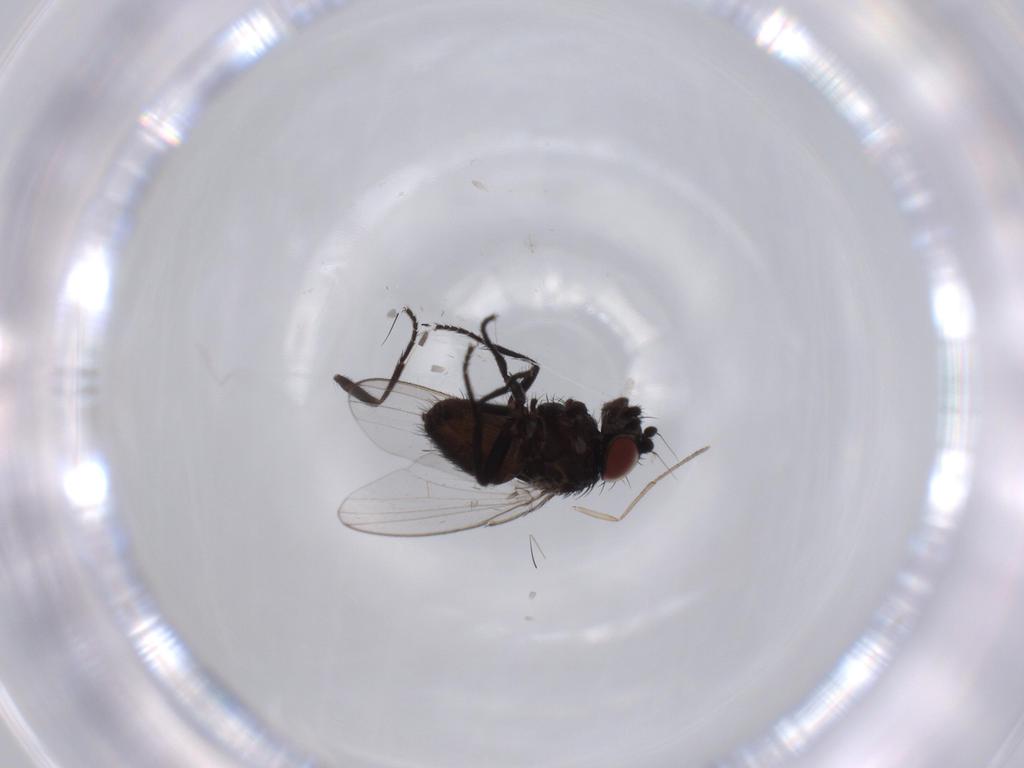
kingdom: Animalia
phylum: Arthropoda
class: Insecta
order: Diptera
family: Milichiidae
